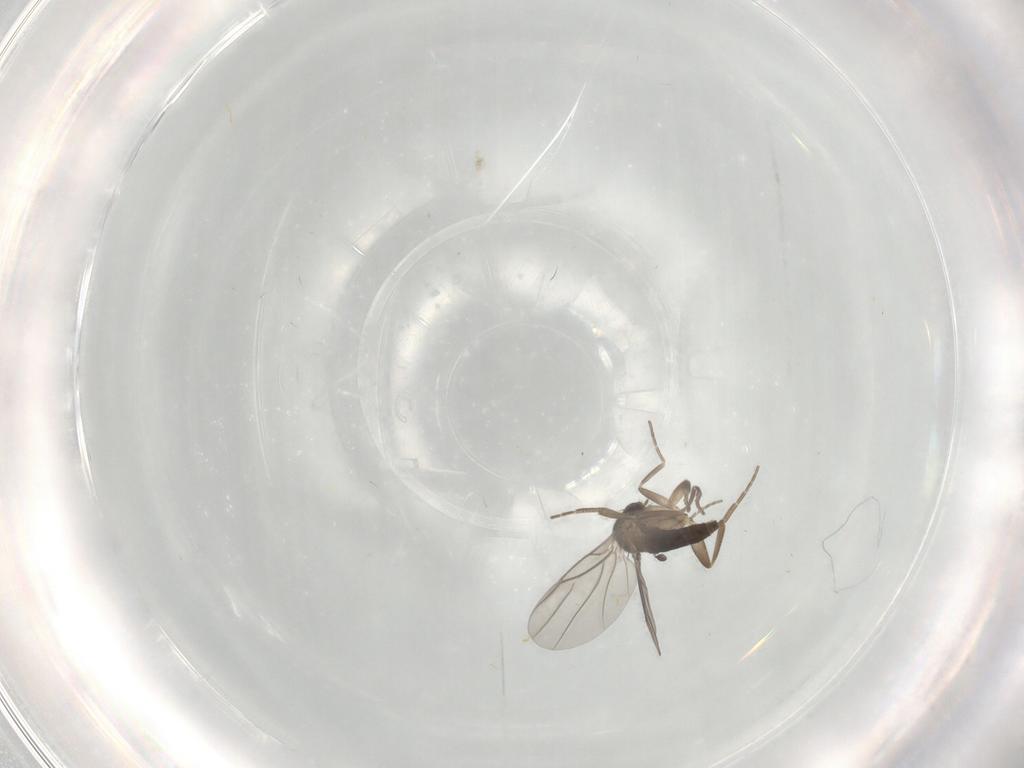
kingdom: Animalia
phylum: Arthropoda
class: Insecta
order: Diptera
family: Phoridae
